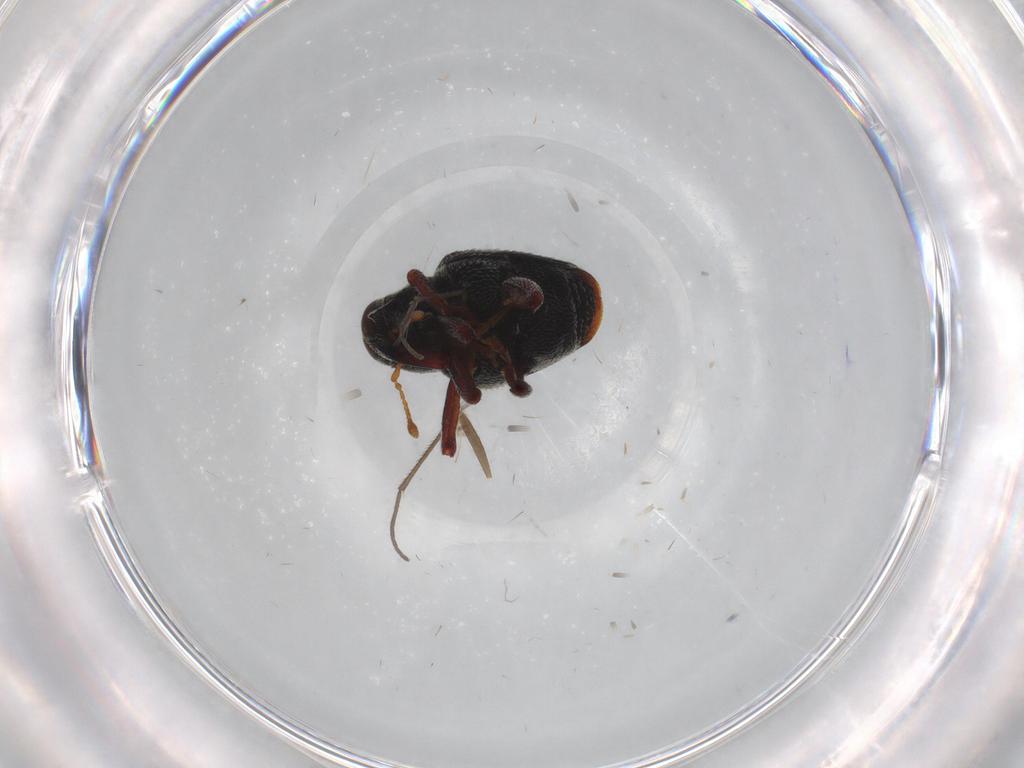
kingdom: Animalia
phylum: Arthropoda
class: Insecta
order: Coleoptera
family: Curculionidae
